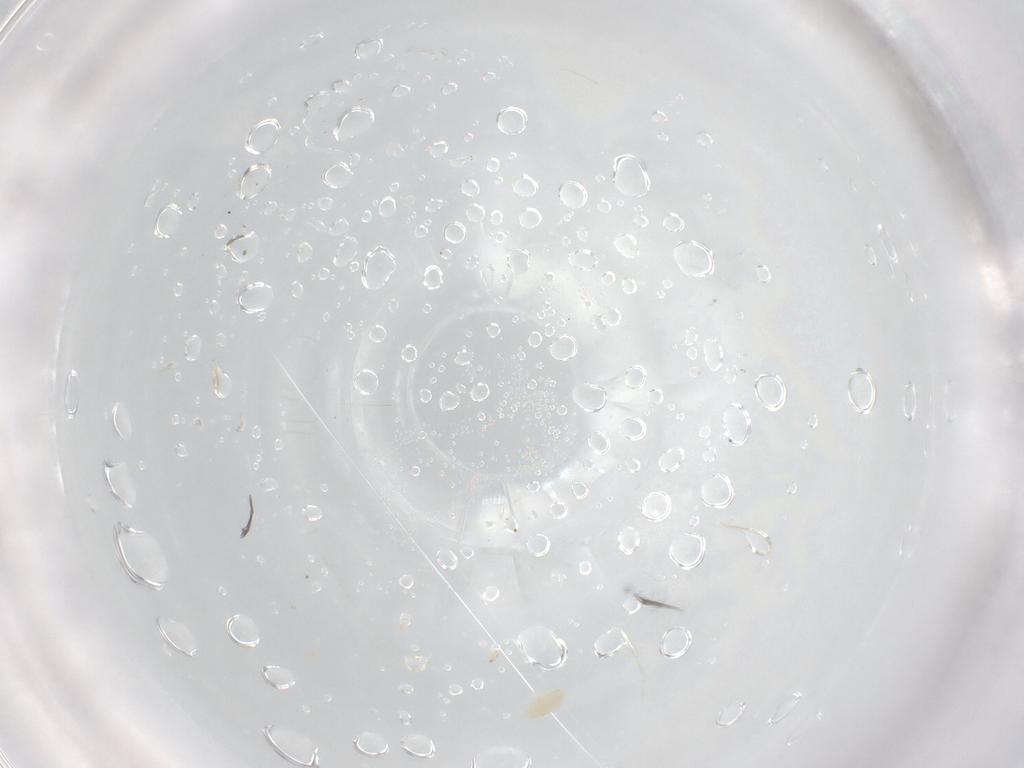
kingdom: Animalia
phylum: Arthropoda
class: Arachnida
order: Trombidiformes
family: Eupodidae
